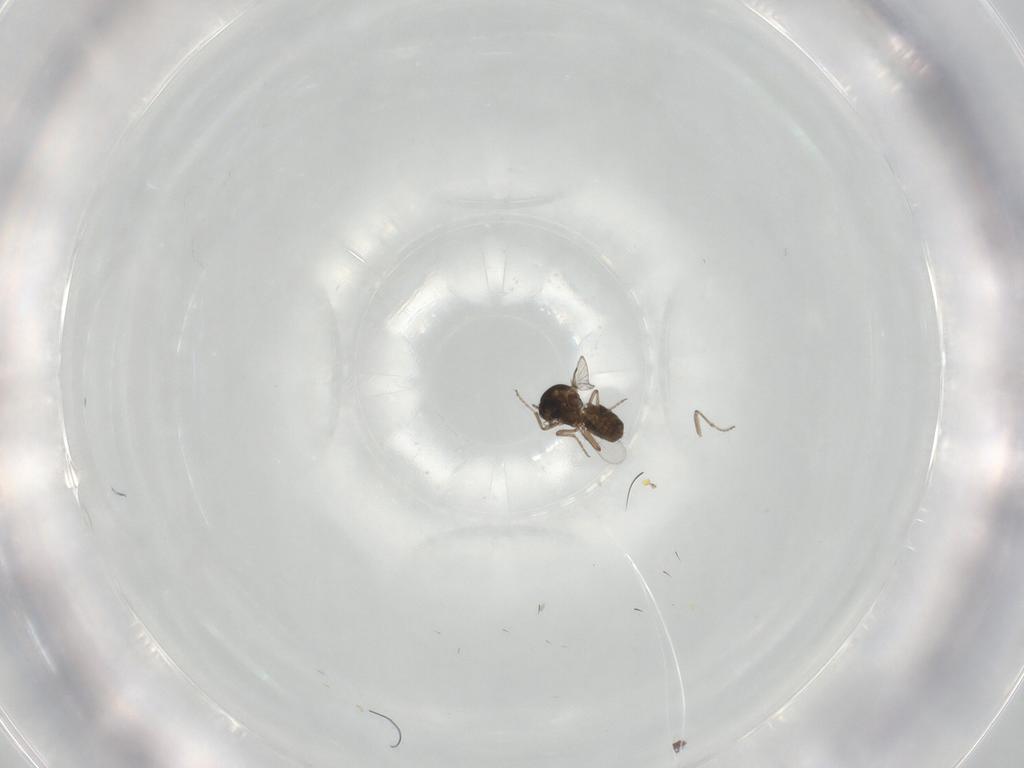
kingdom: Animalia
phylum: Arthropoda
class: Insecta
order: Diptera
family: Ceratopogonidae
